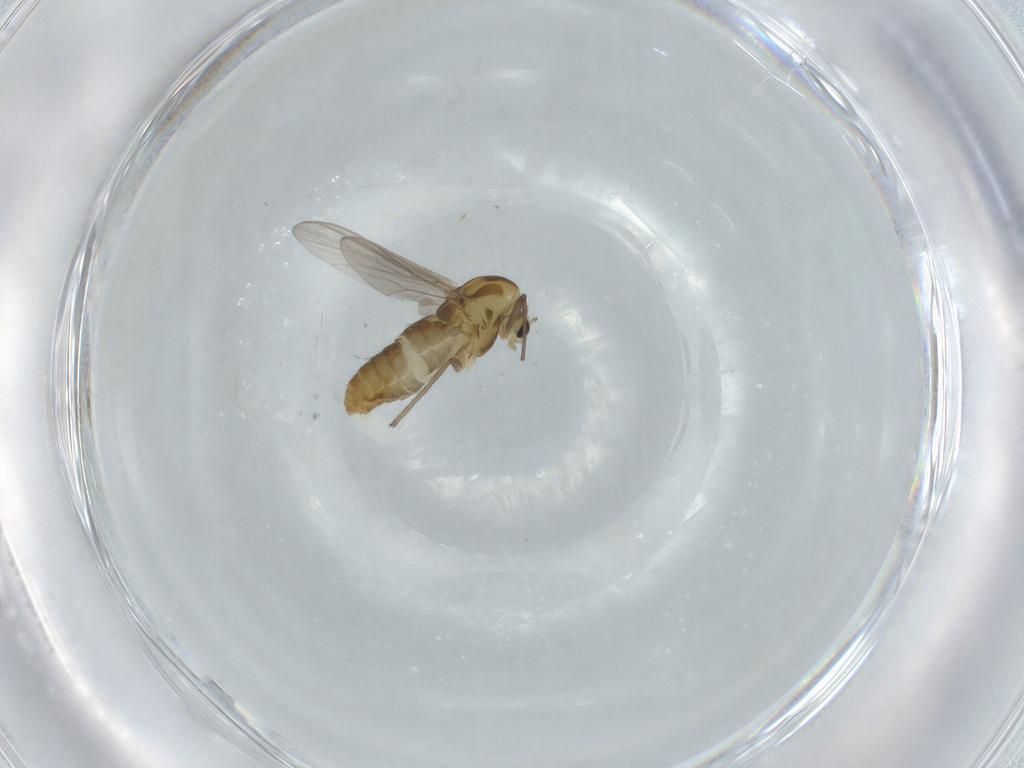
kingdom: Animalia
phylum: Arthropoda
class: Insecta
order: Diptera
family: Chironomidae
